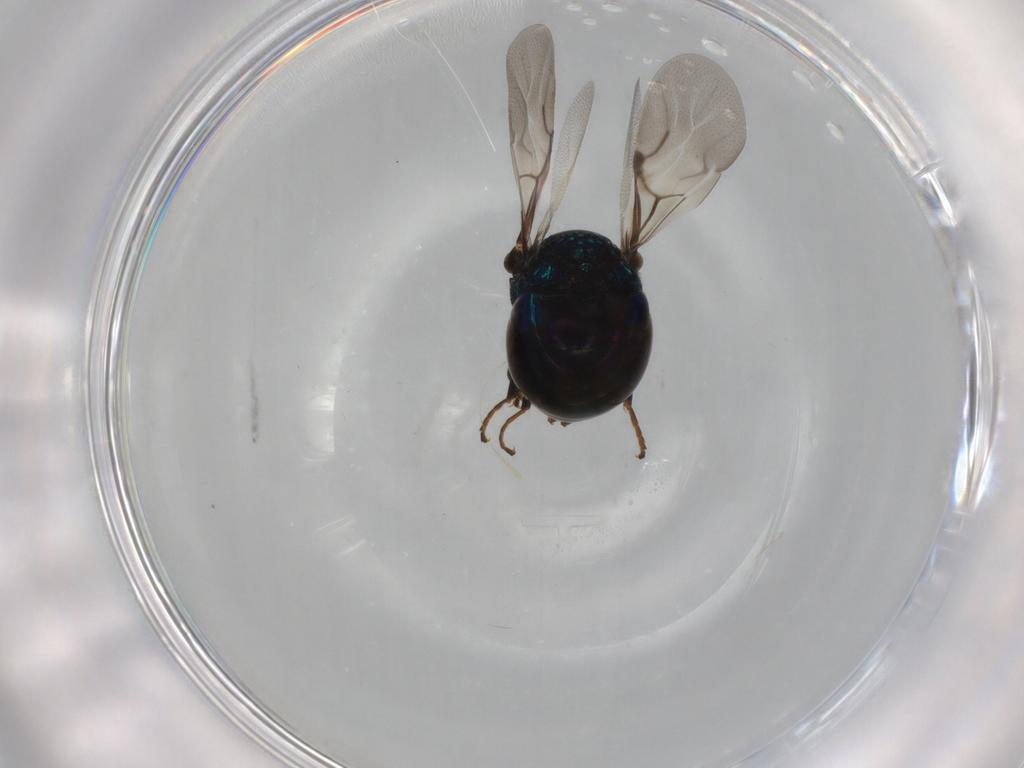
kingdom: Animalia
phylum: Arthropoda
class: Insecta
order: Hymenoptera
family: Chrysididae
